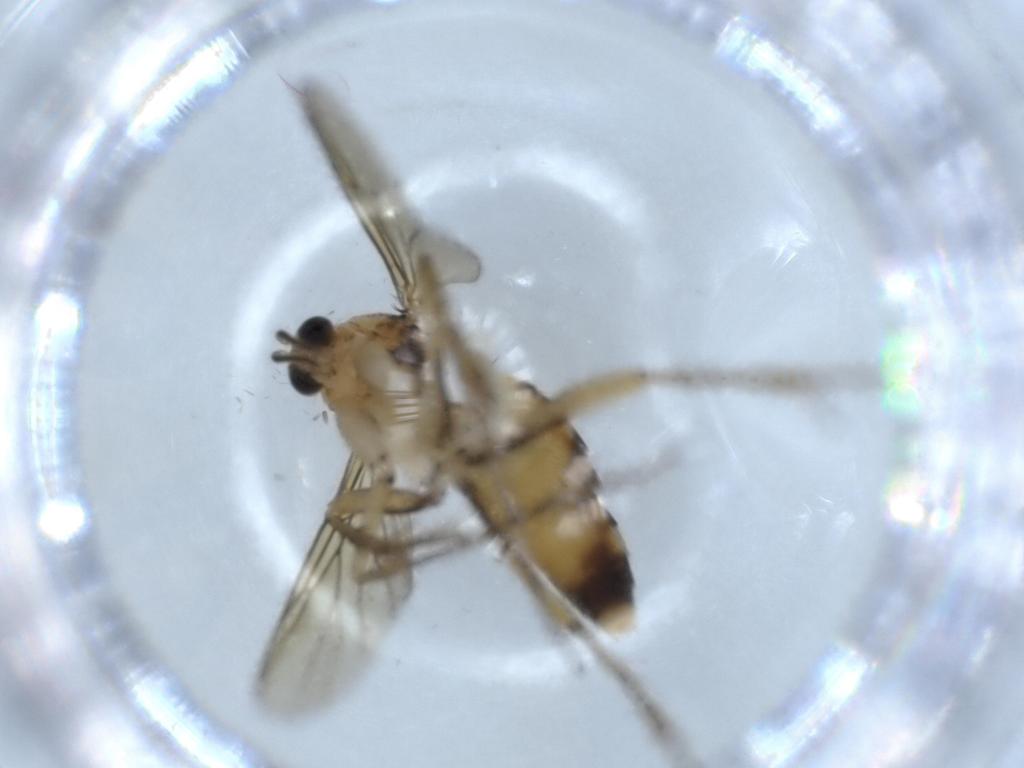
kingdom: Animalia
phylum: Arthropoda
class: Insecta
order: Diptera
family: Mycetophilidae
